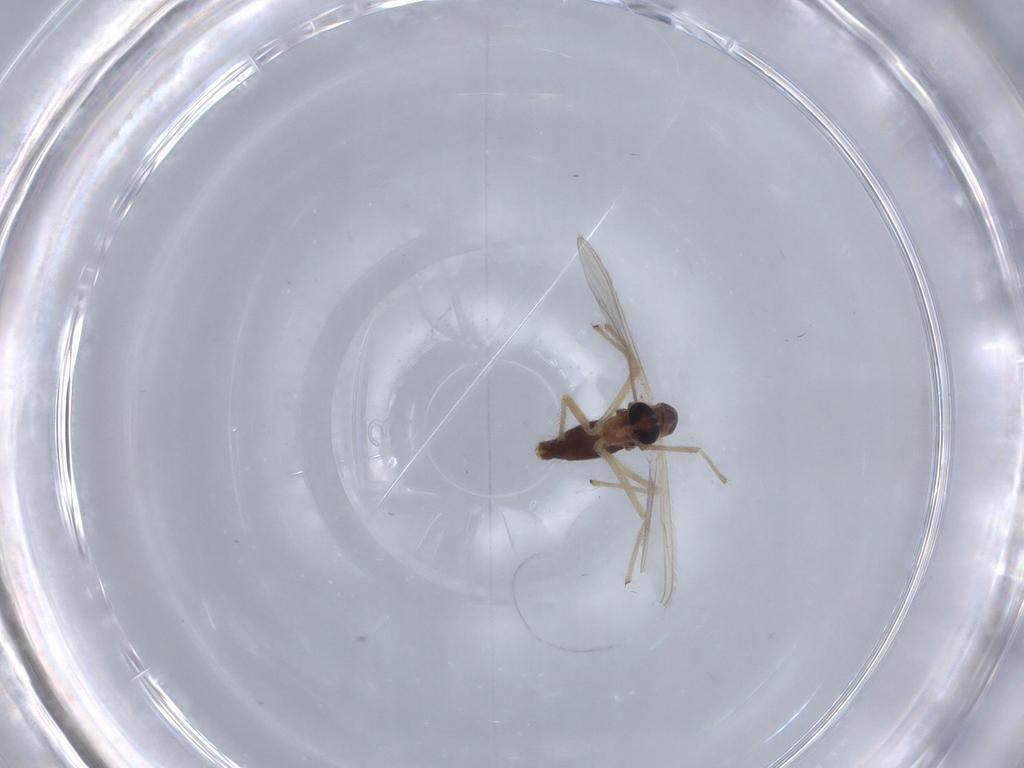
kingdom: Animalia
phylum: Arthropoda
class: Insecta
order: Diptera
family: Chironomidae
